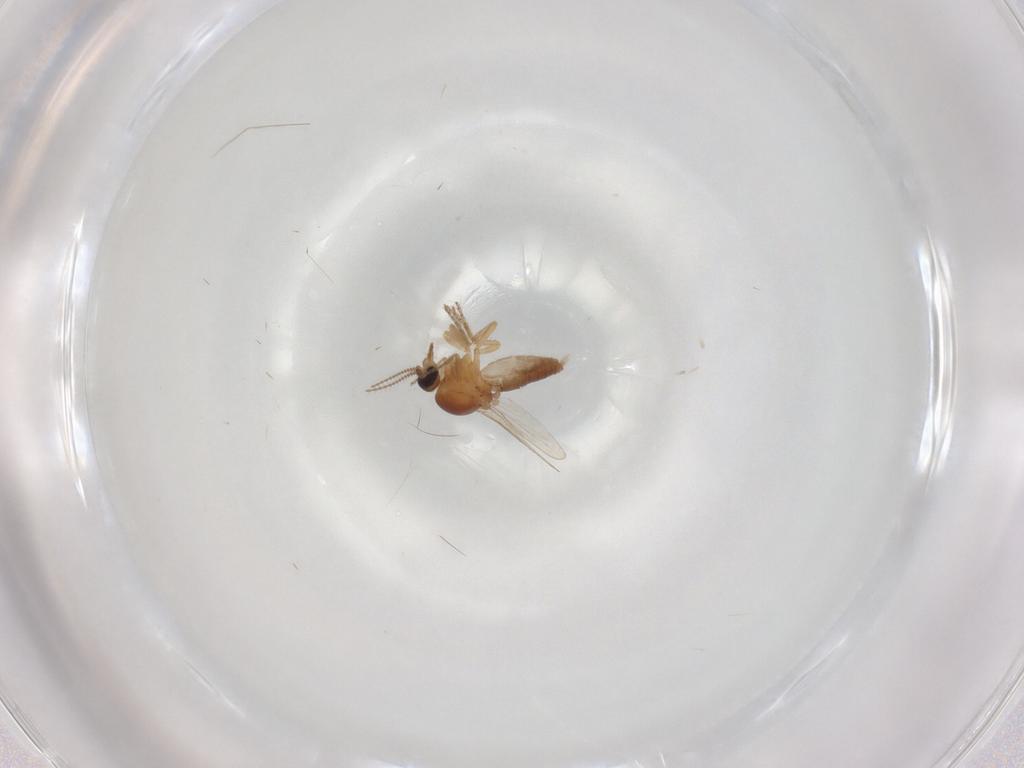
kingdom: Animalia
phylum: Arthropoda
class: Insecta
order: Diptera
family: Ceratopogonidae
